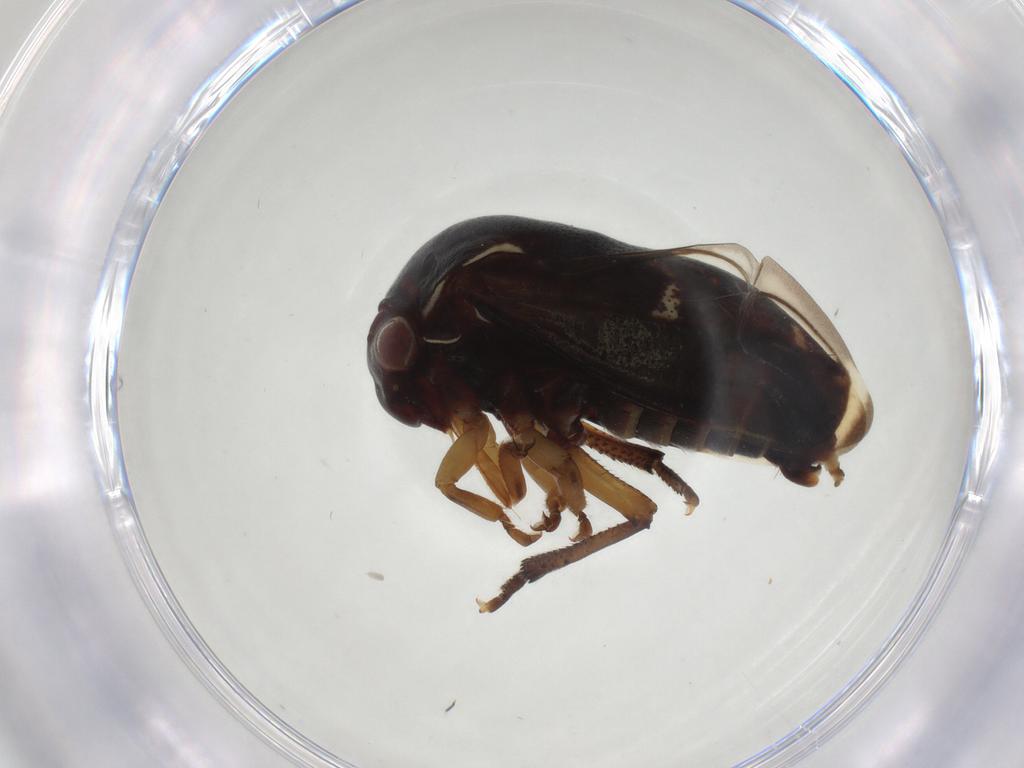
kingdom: Animalia
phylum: Arthropoda
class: Insecta
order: Hemiptera
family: Membracidae
